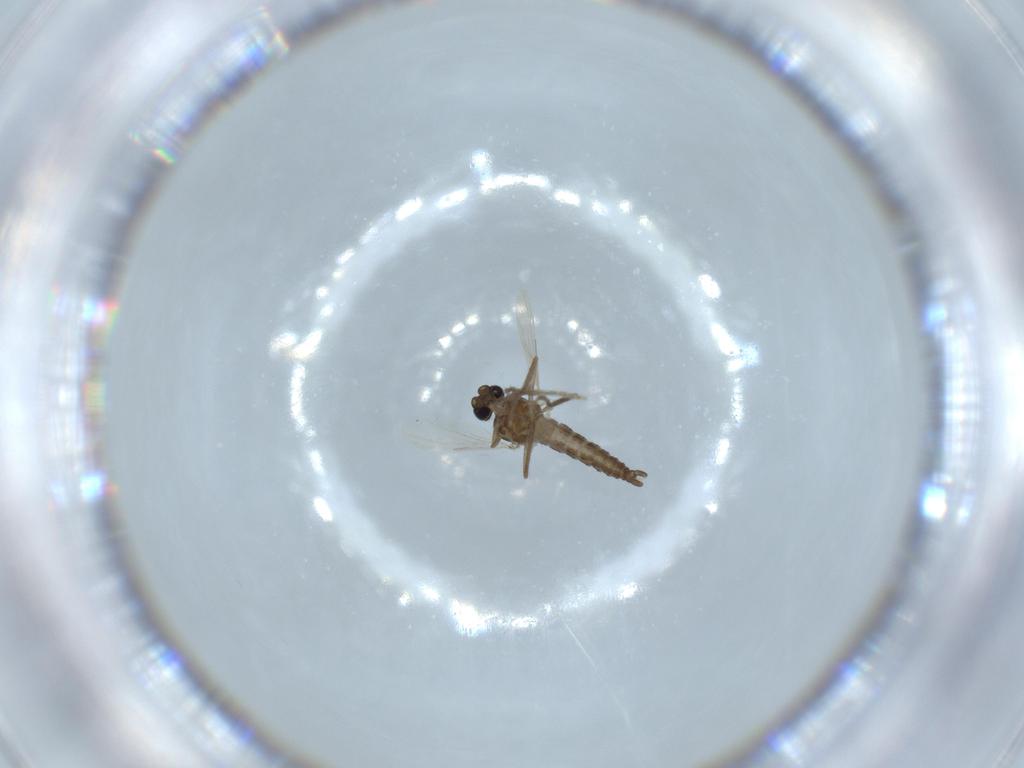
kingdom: Animalia
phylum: Arthropoda
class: Insecta
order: Diptera
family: Ceratopogonidae
